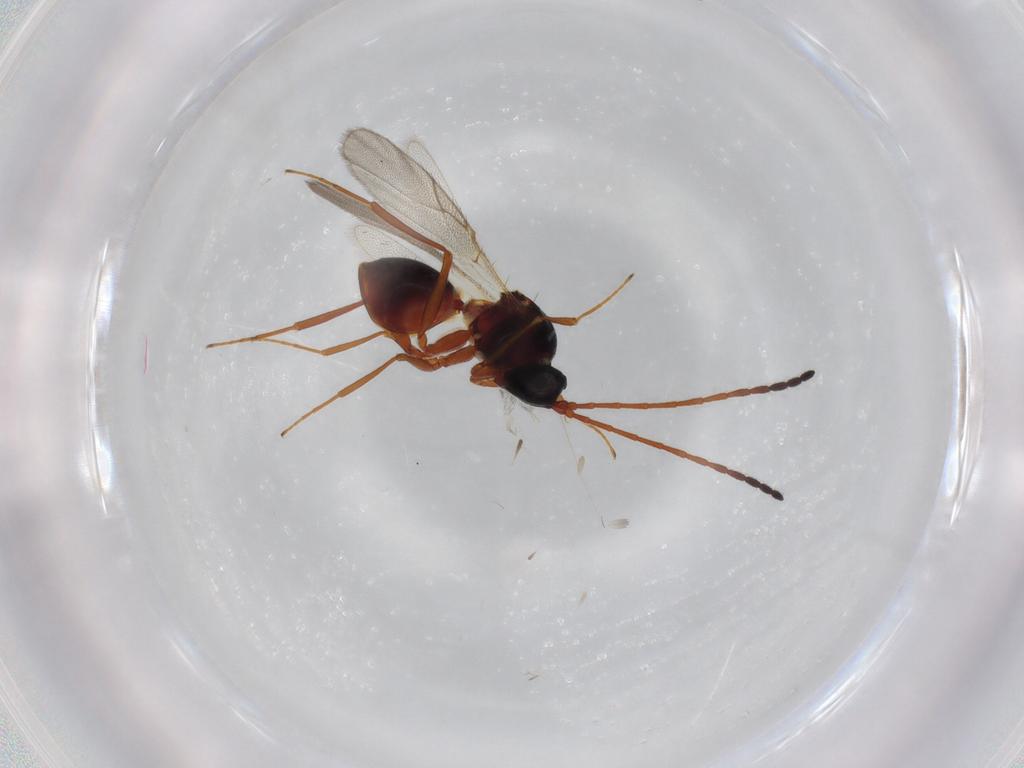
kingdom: Animalia
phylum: Arthropoda
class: Insecta
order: Hymenoptera
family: Figitidae
